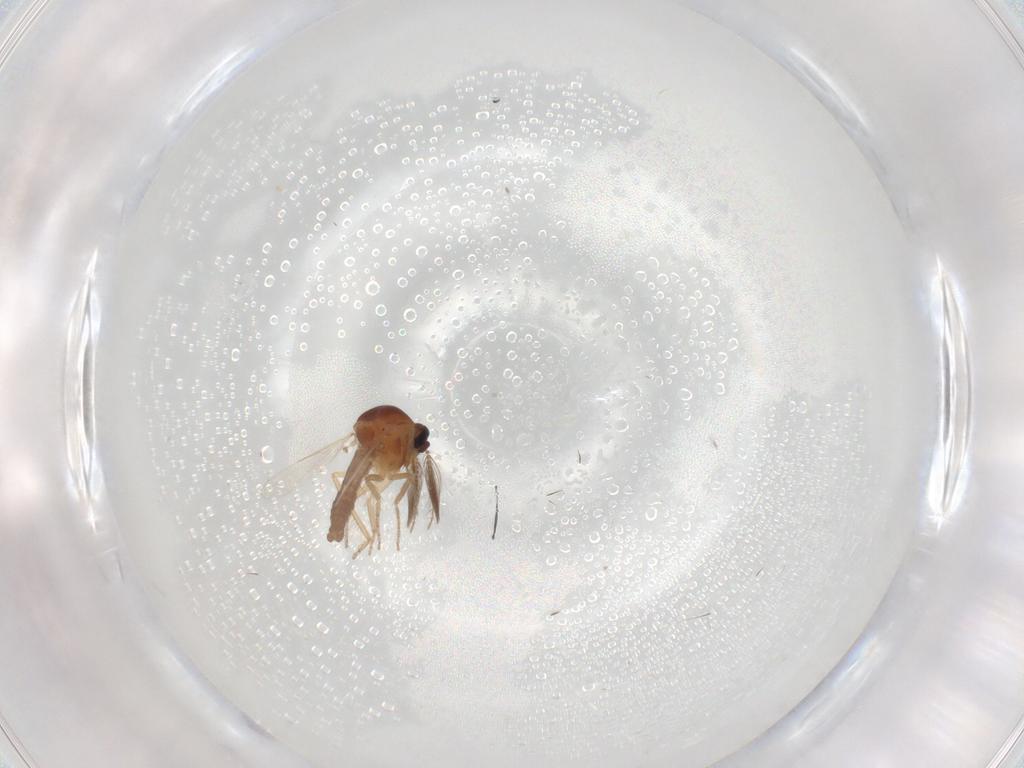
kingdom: Animalia
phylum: Arthropoda
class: Insecta
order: Diptera
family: Ceratopogonidae
